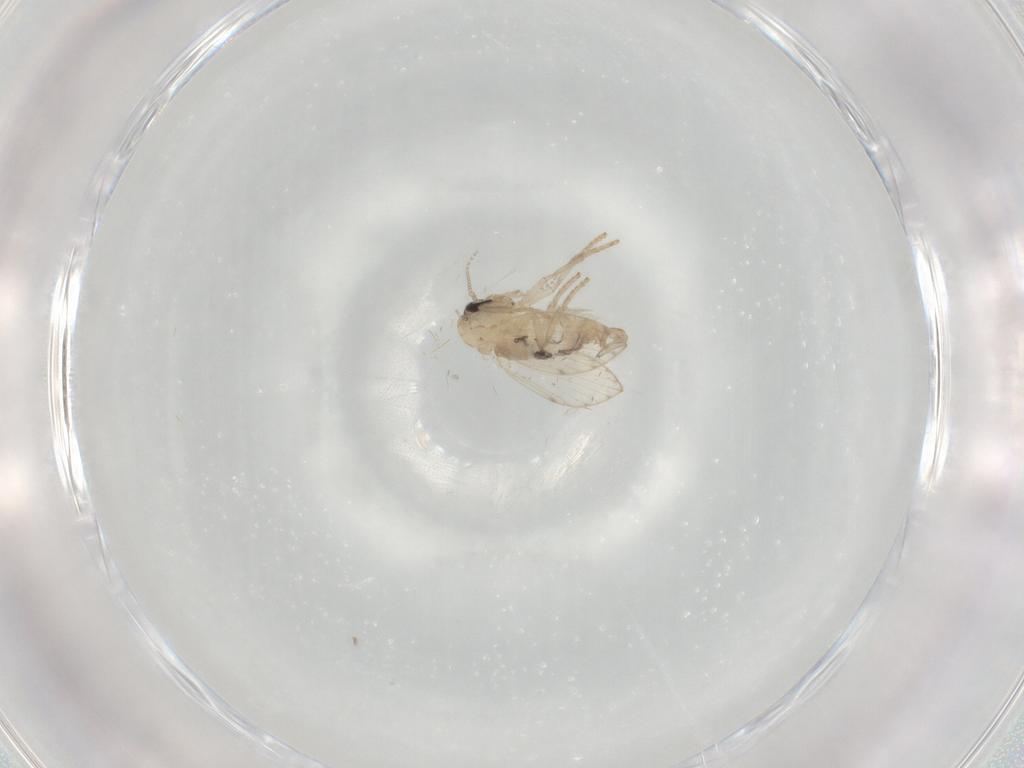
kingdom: Animalia
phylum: Arthropoda
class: Insecta
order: Diptera
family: Psychodidae
